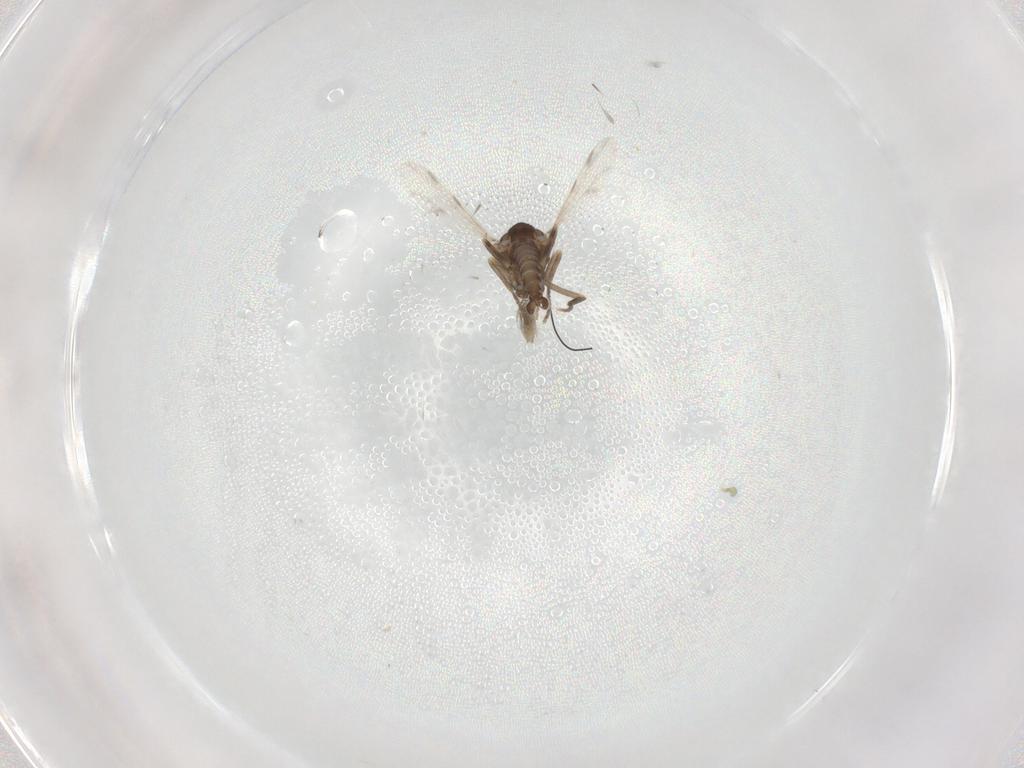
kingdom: Animalia
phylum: Arthropoda
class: Insecta
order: Diptera
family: Ceratopogonidae
